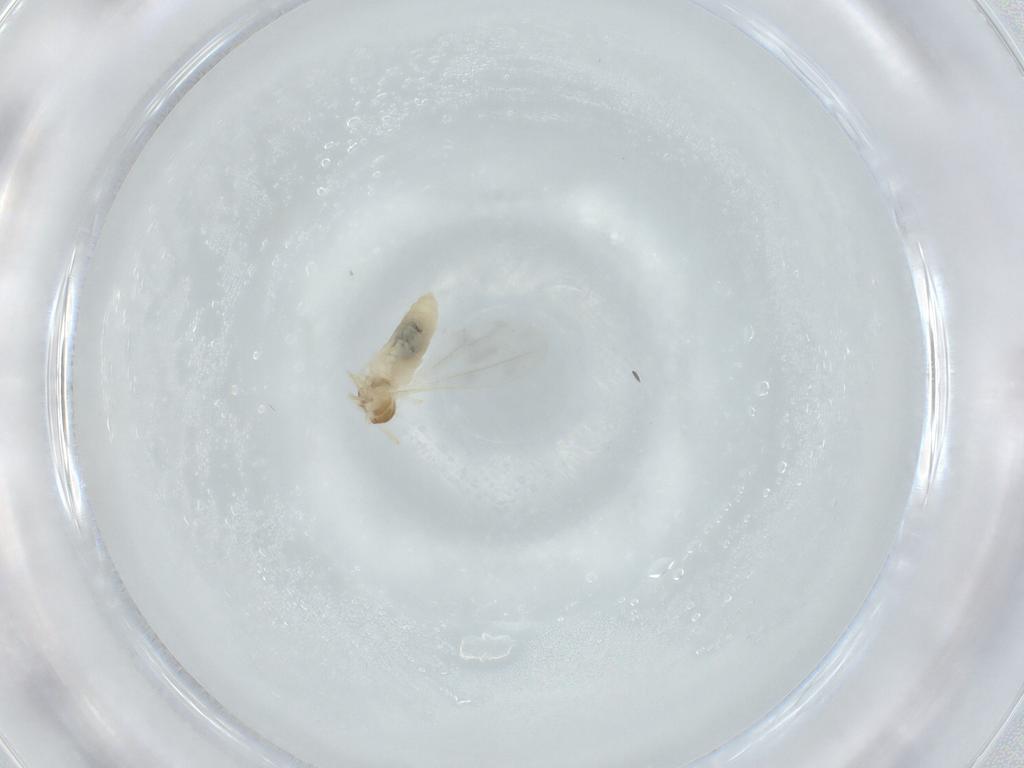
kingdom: Animalia
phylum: Arthropoda
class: Insecta
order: Diptera
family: Cecidomyiidae
